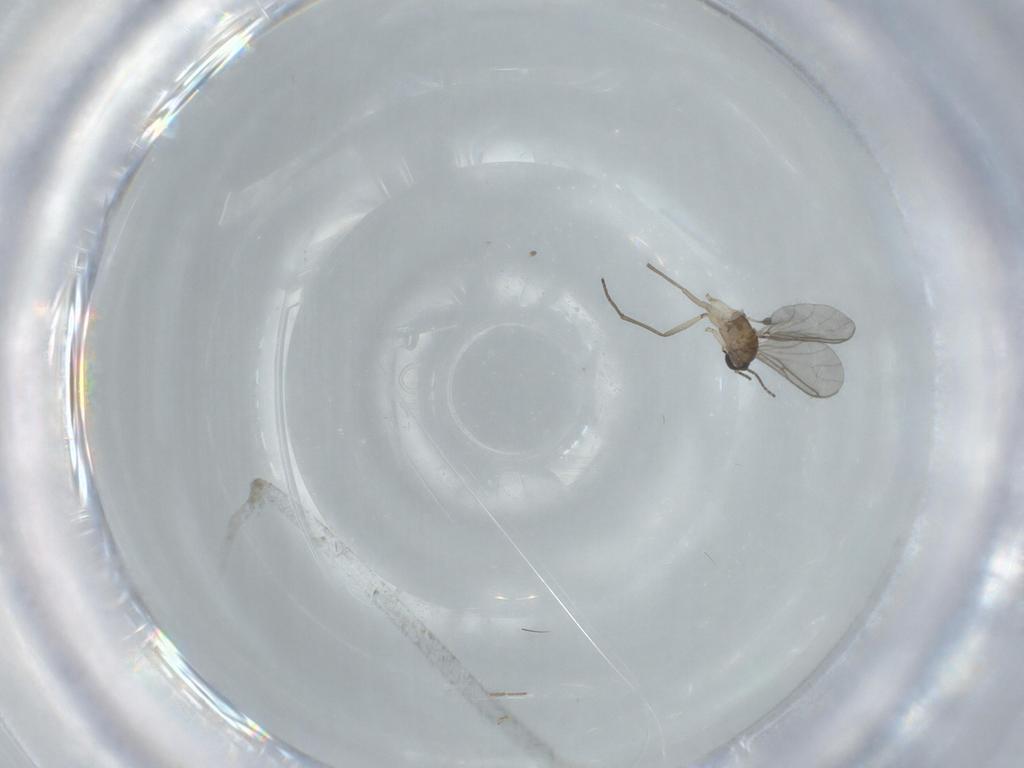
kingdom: Animalia
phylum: Arthropoda
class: Insecta
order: Diptera
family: Sciaridae
